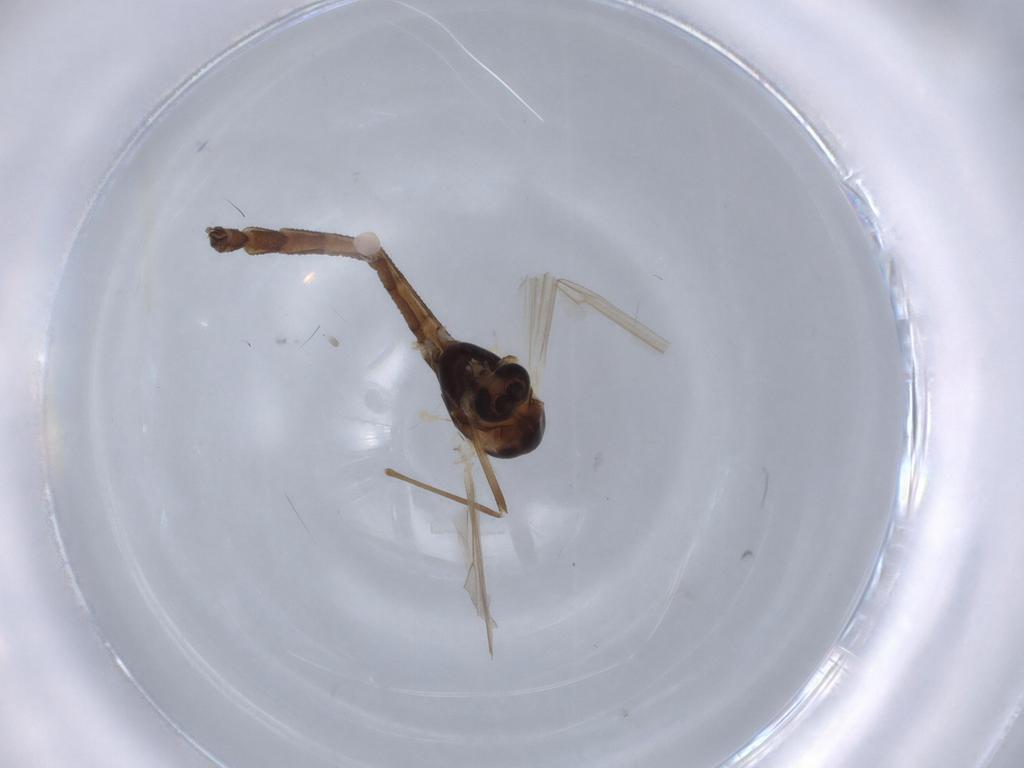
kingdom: Animalia
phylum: Arthropoda
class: Insecta
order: Diptera
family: Chironomidae
